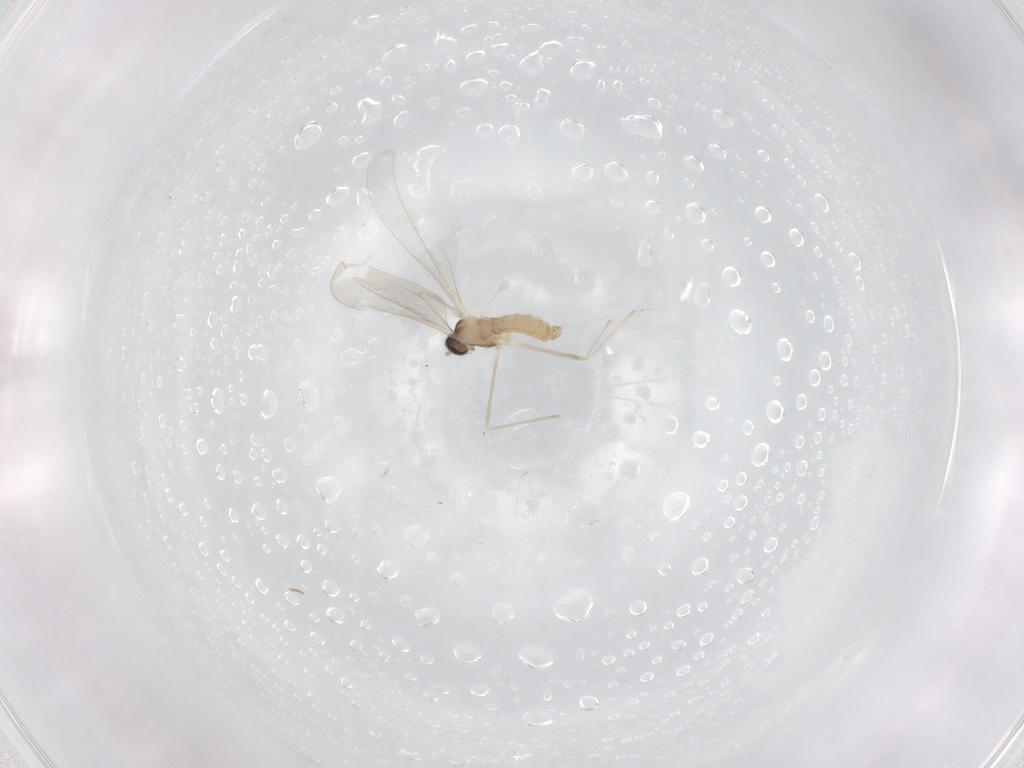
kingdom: Animalia
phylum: Arthropoda
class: Insecta
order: Diptera
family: Cecidomyiidae
